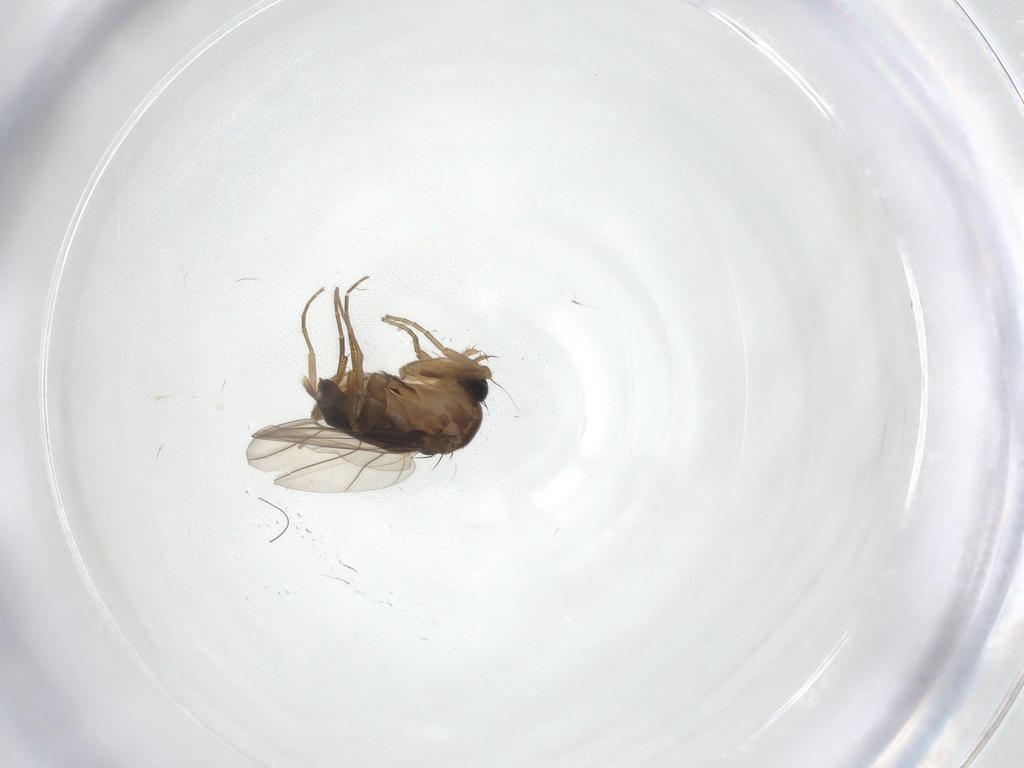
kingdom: Animalia
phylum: Arthropoda
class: Insecta
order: Diptera
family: Phoridae
